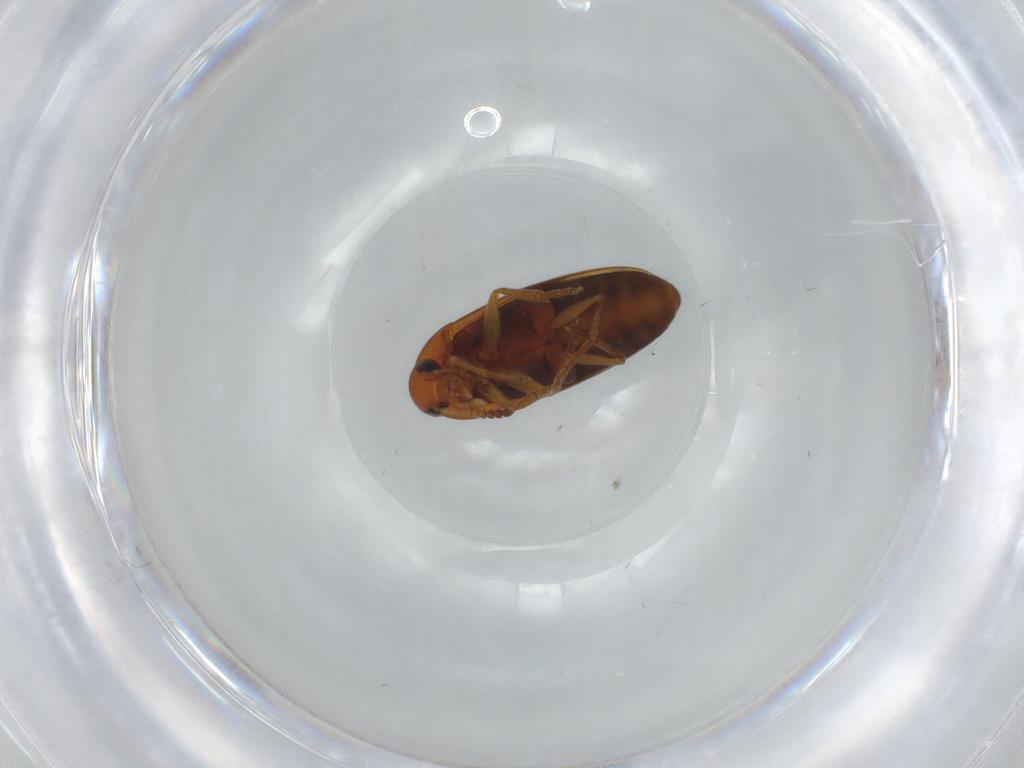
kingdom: Animalia
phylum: Arthropoda
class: Insecta
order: Coleoptera
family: Scraptiidae
